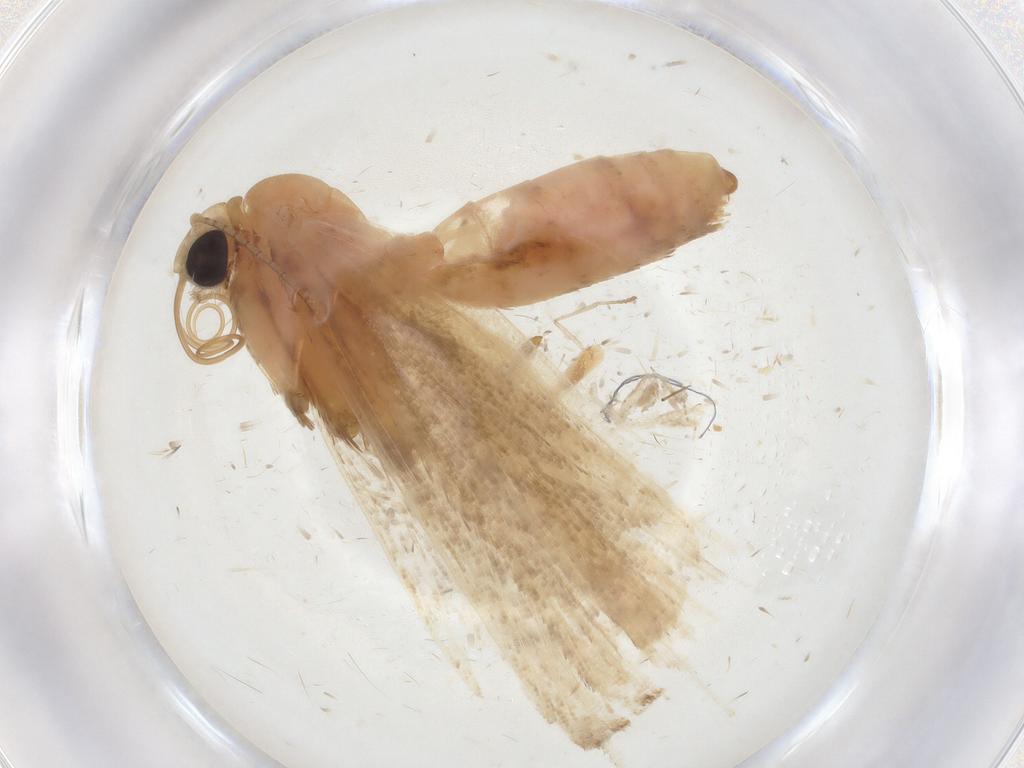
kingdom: Animalia
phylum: Arthropoda
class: Insecta
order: Lepidoptera
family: Erebidae
